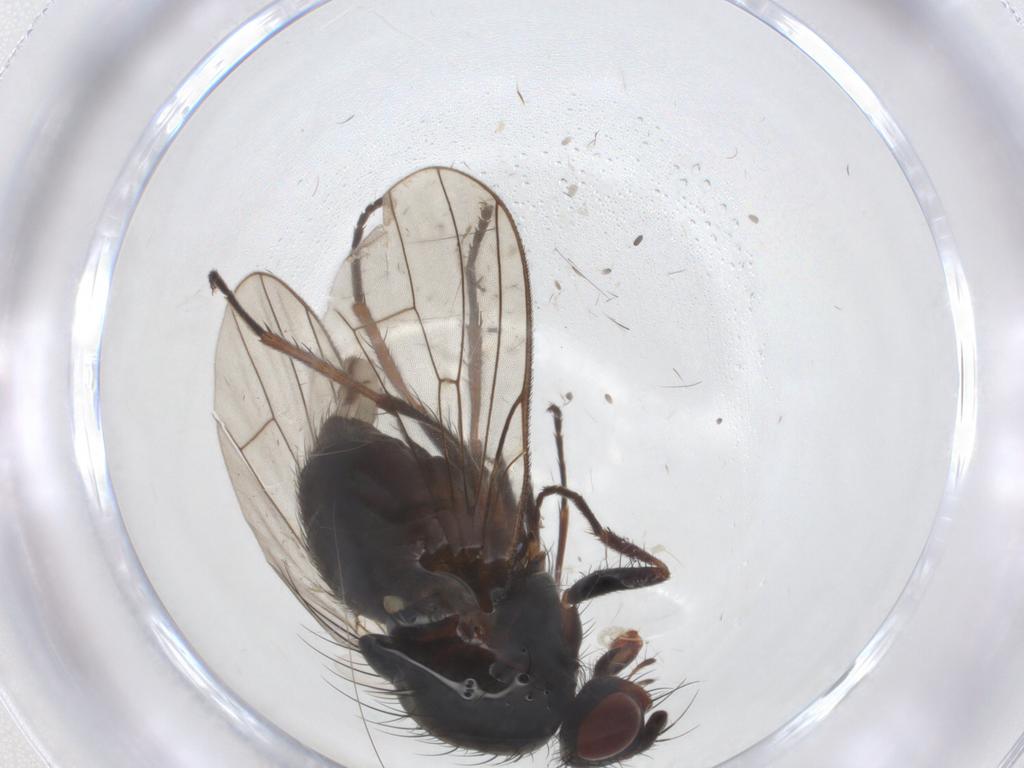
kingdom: Animalia
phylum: Arthropoda
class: Insecta
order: Diptera
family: Anthomyiidae
